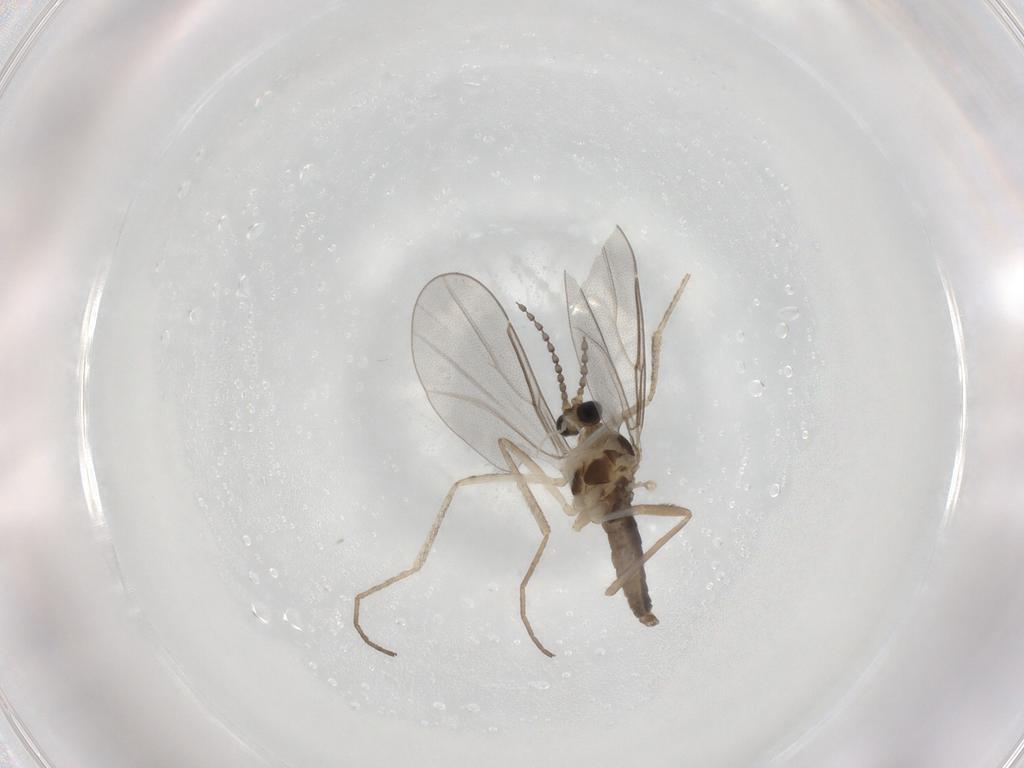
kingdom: Animalia
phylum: Arthropoda
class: Insecta
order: Diptera
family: Cecidomyiidae
